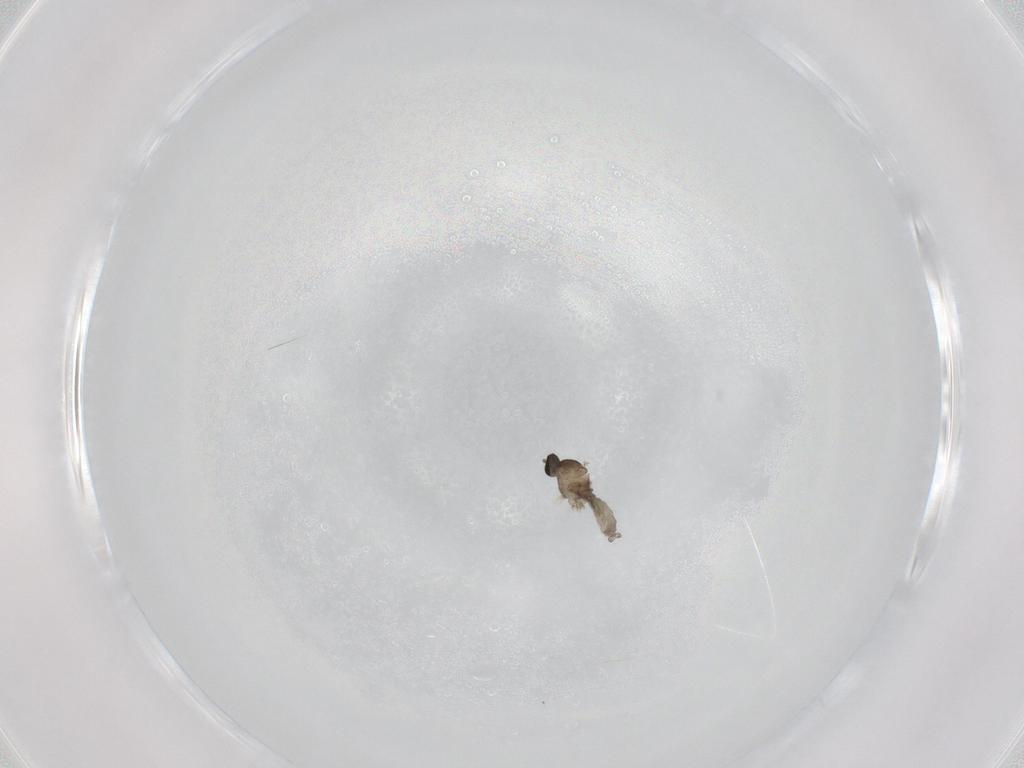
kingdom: Animalia
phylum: Arthropoda
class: Insecta
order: Diptera
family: Cecidomyiidae
